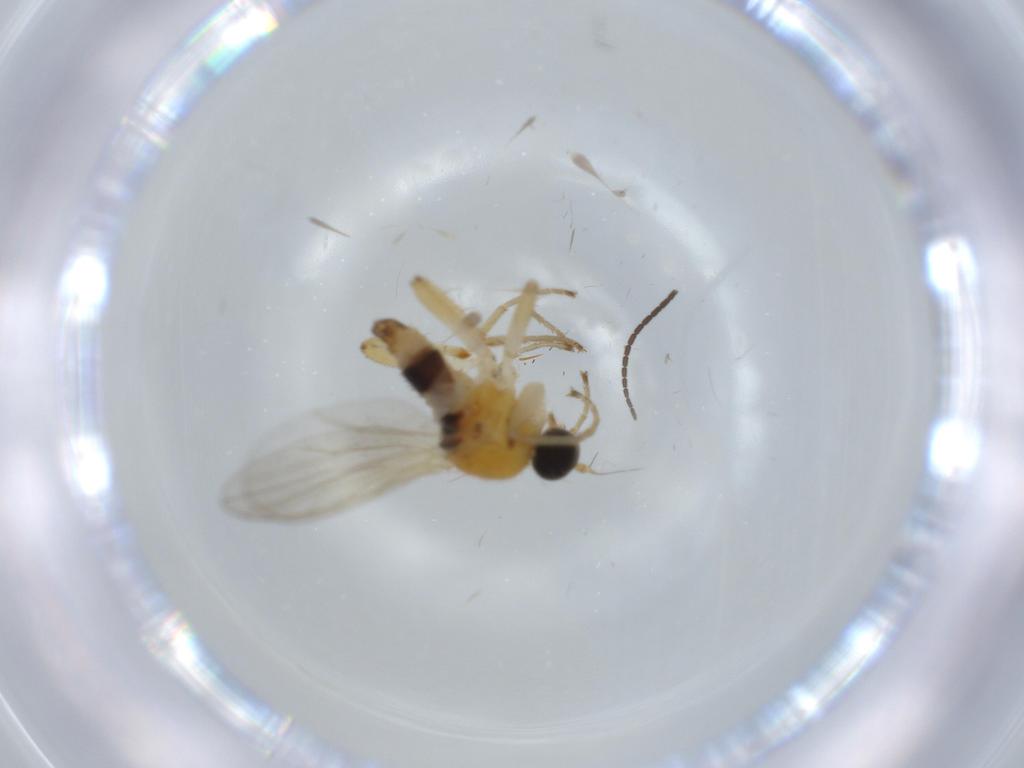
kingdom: Animalia
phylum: Arthropoda
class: Insecta
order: Diptera
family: Hybotidae
